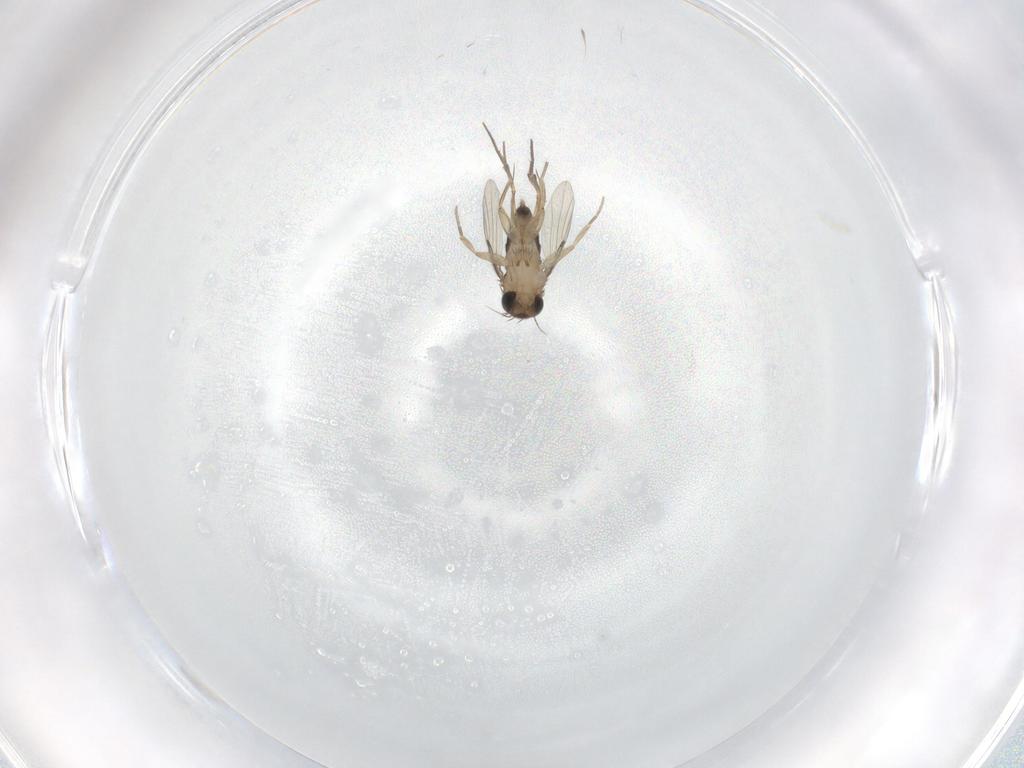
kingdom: Animalia
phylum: Arthropoda
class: Insecta
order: Diptera
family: Phoridae
